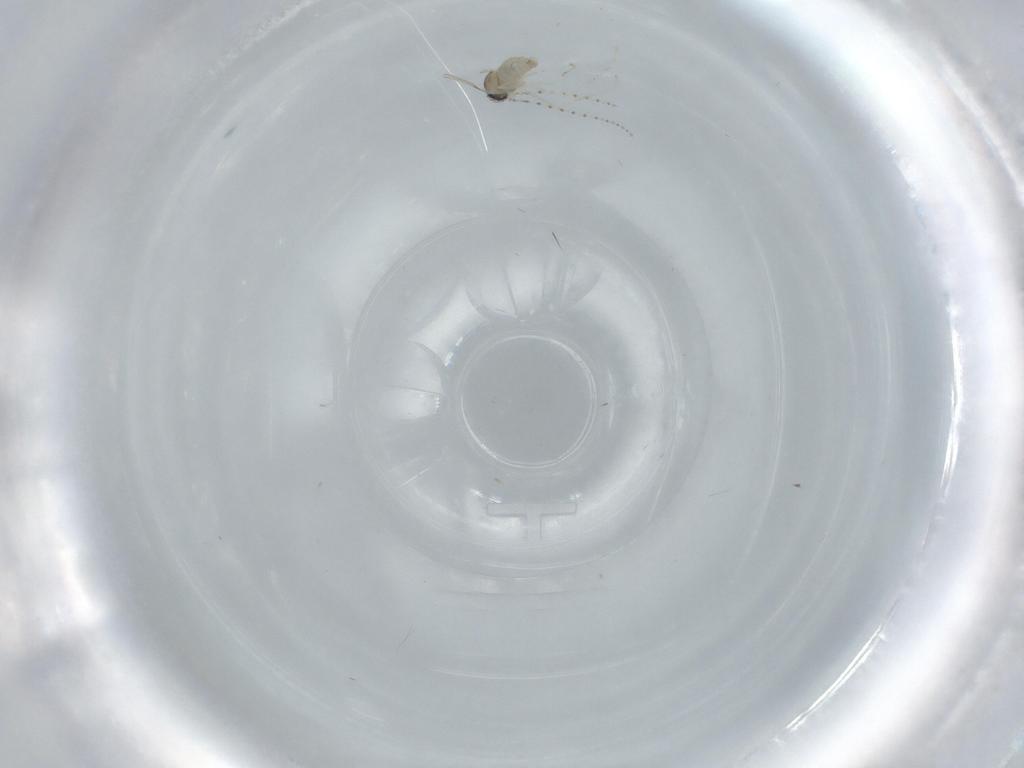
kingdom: Animalia
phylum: Arthropoda
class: Insecta
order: Diptera
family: Cecidomyiidae
